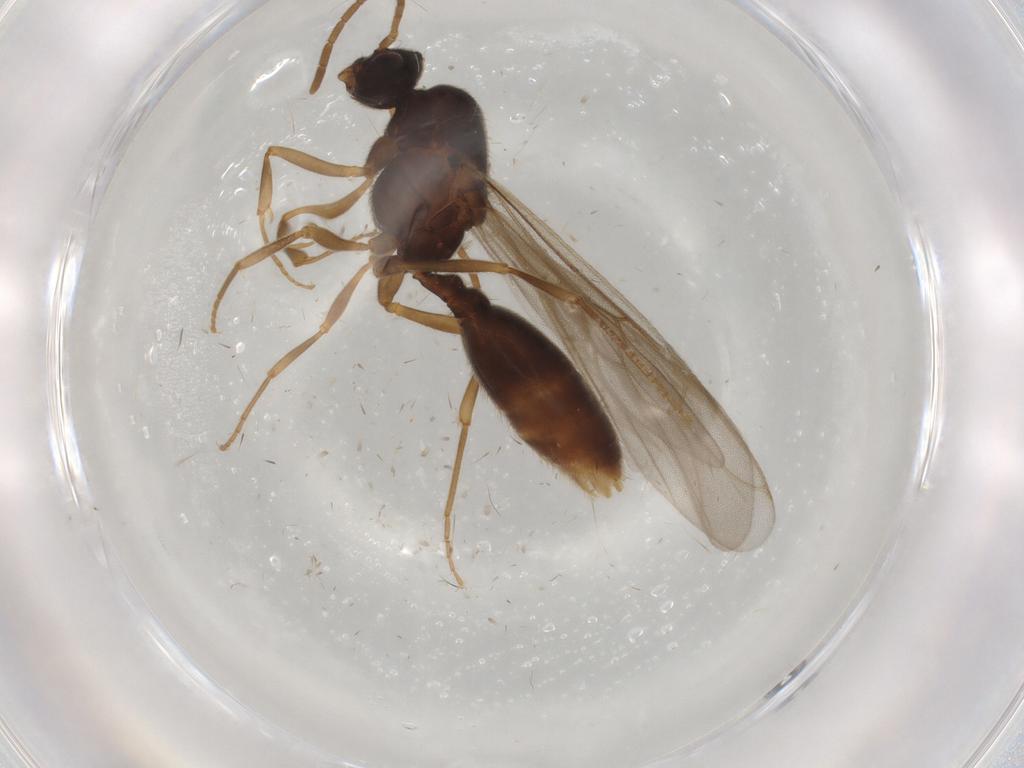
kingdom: Animalia
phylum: Arthropoda
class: Insecta
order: Hymenoptera
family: Formicidae
